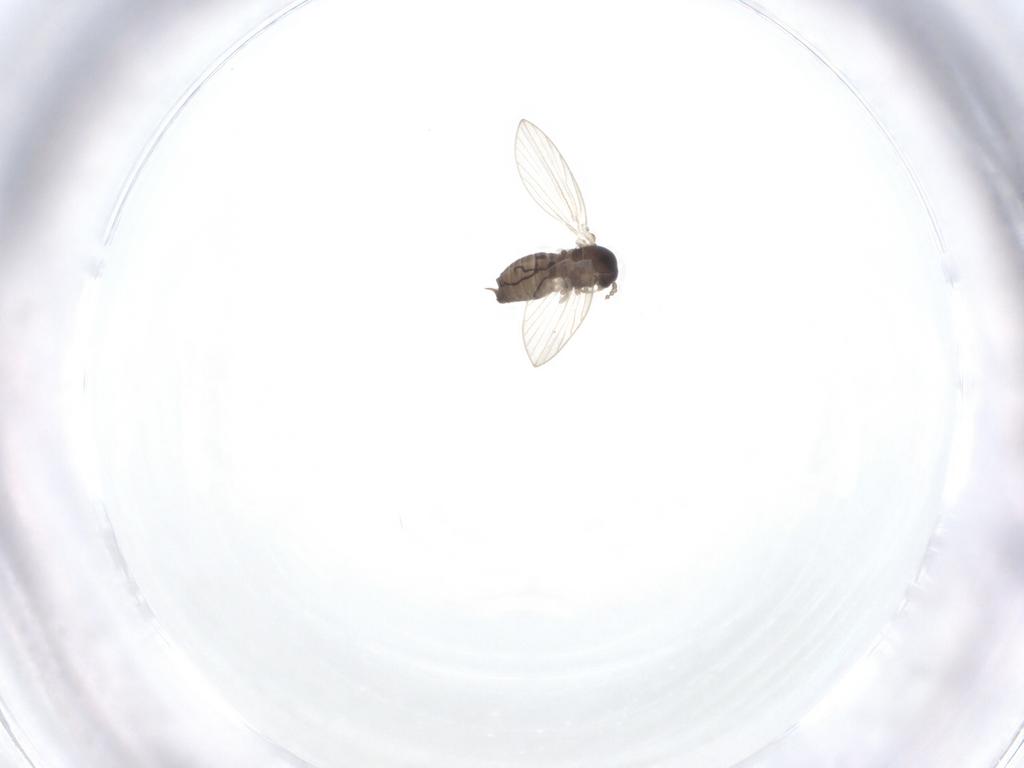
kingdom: Animalia
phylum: Arthropoda
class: Insecta
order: Diptera
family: Psychodidae
